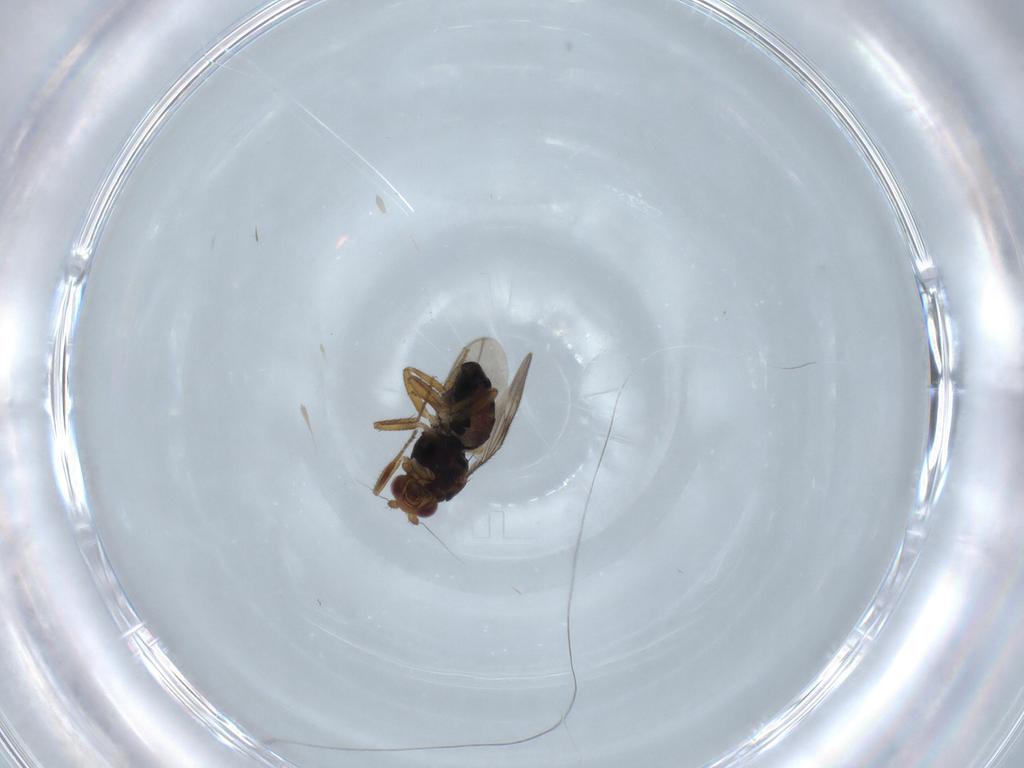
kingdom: Animalia
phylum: Arthropoda
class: Insecta
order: Diptera
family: Sphaeroceridae
